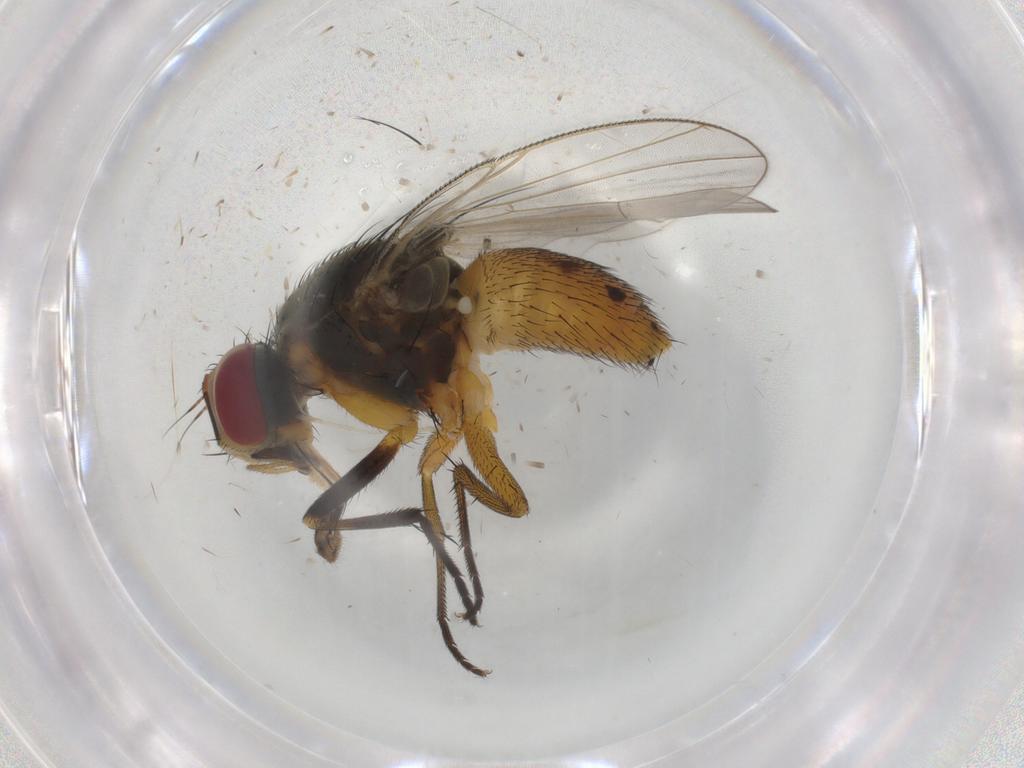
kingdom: Animalia
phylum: Arthropoda
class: Insecta
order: Diptera
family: Muscidae
